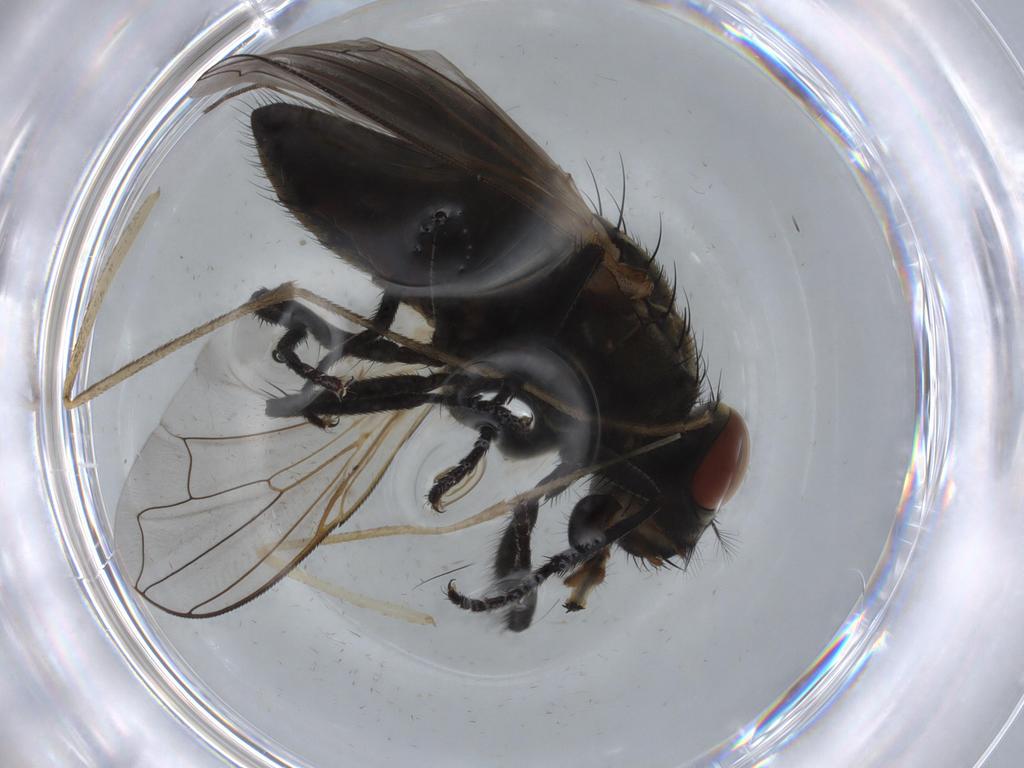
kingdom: Animalia
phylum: Arthropoda
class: Insecta
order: Diptera
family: Culicidae
